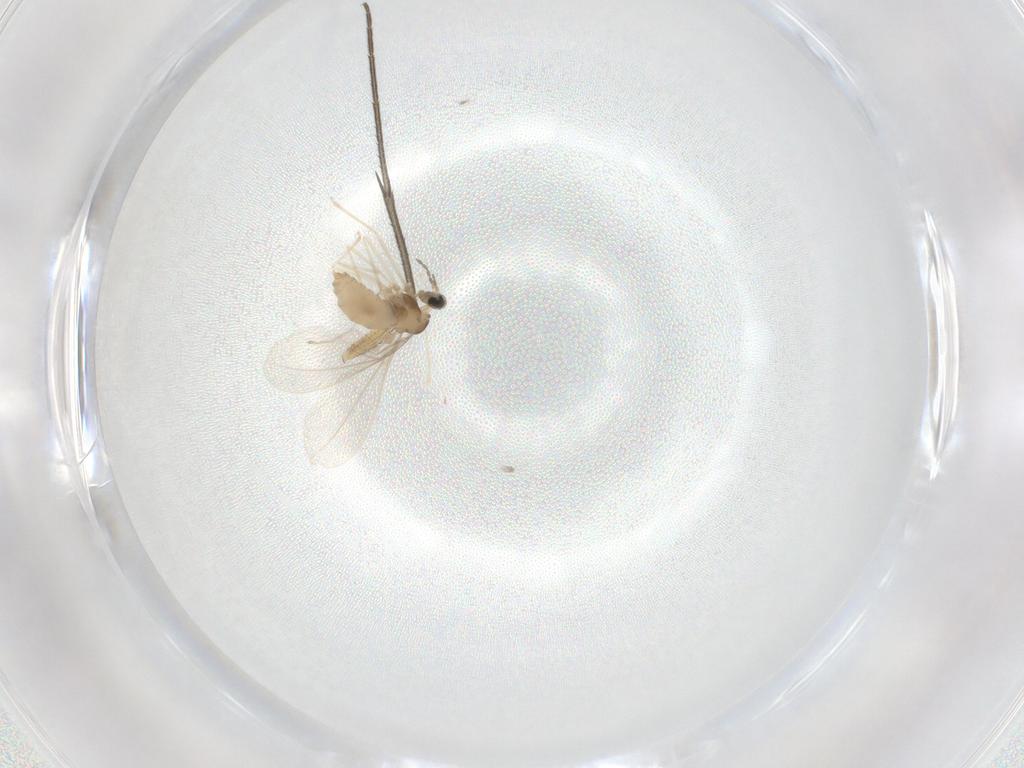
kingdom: Animalia
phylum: Arthropoda
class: Insecta
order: Diptera
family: Cecidomyiidae
